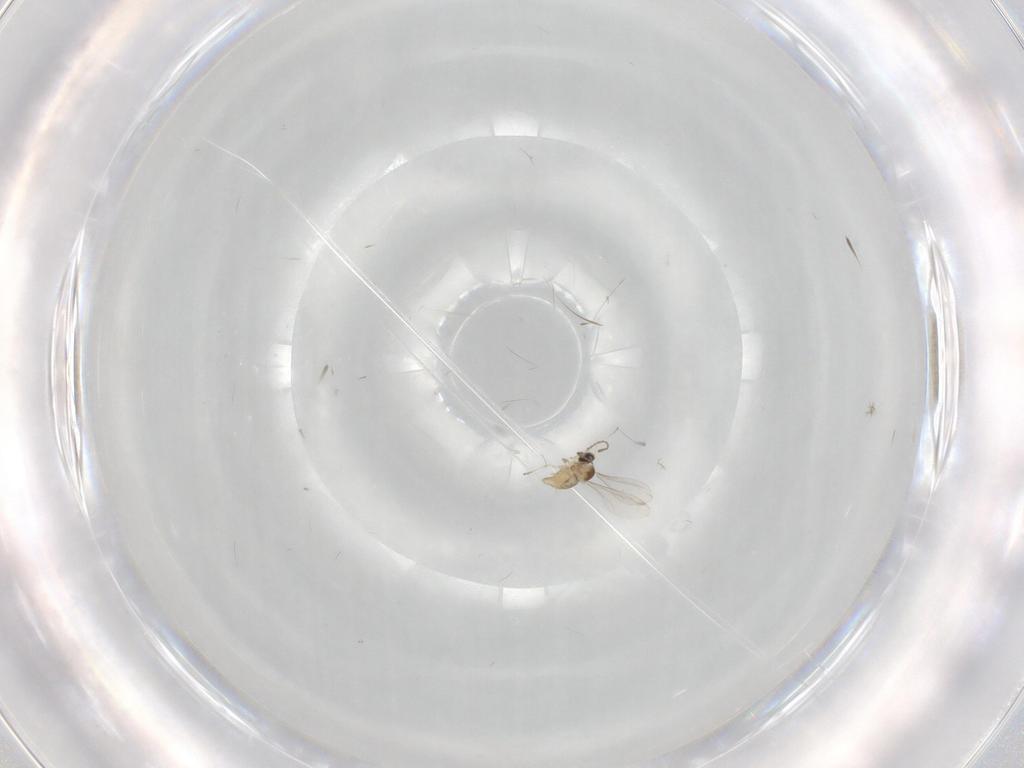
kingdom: Animalia
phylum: Arthropoda
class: Insecta
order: Diptera
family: Cecidomyiidae
